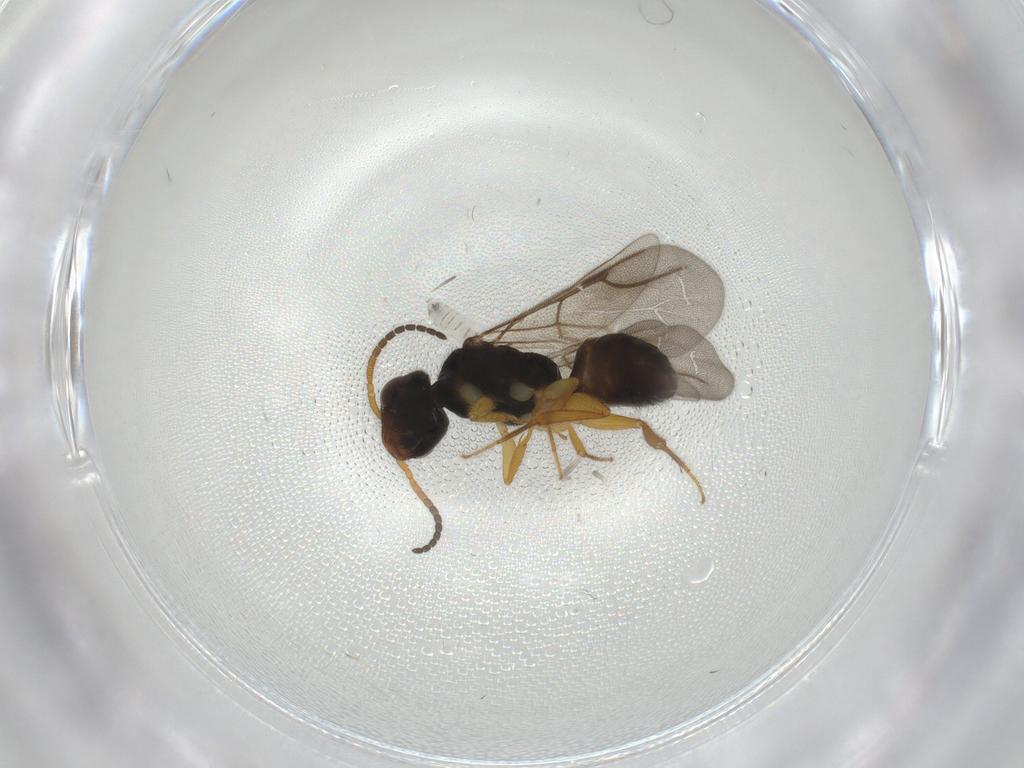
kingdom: Animalia
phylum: Arthropoda
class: Insecta
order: Hymenoptera
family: Bethylidae
